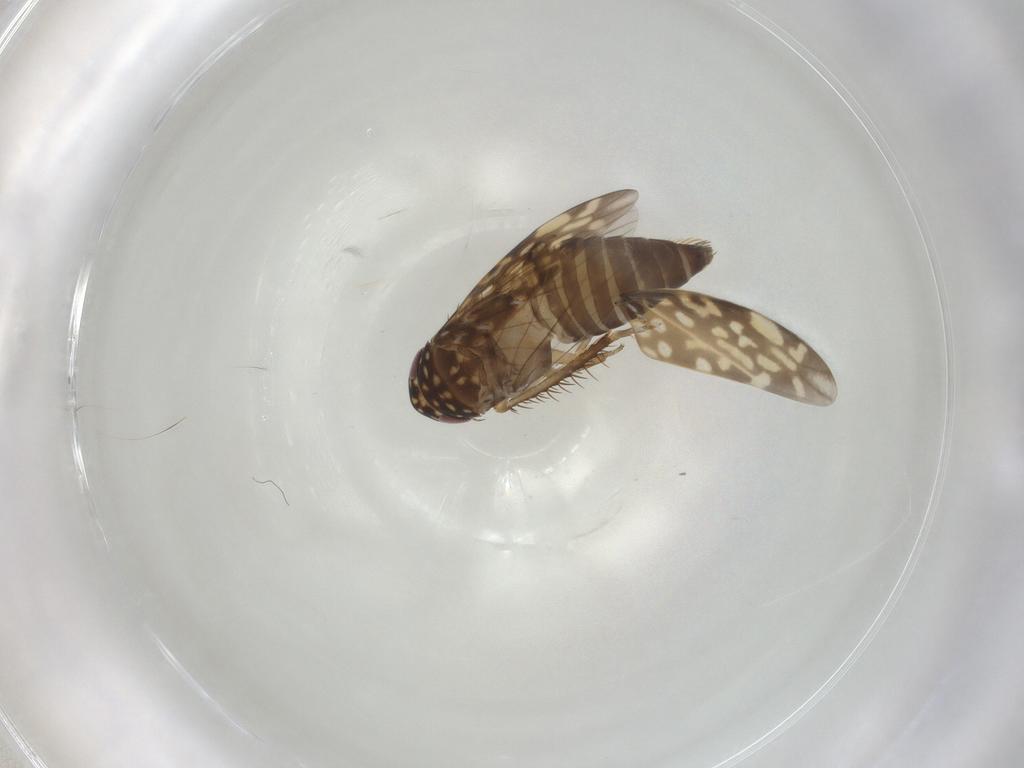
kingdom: Animalia
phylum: Arthropoda
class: Insecta
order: Hemiptera
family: Cicadellidae
